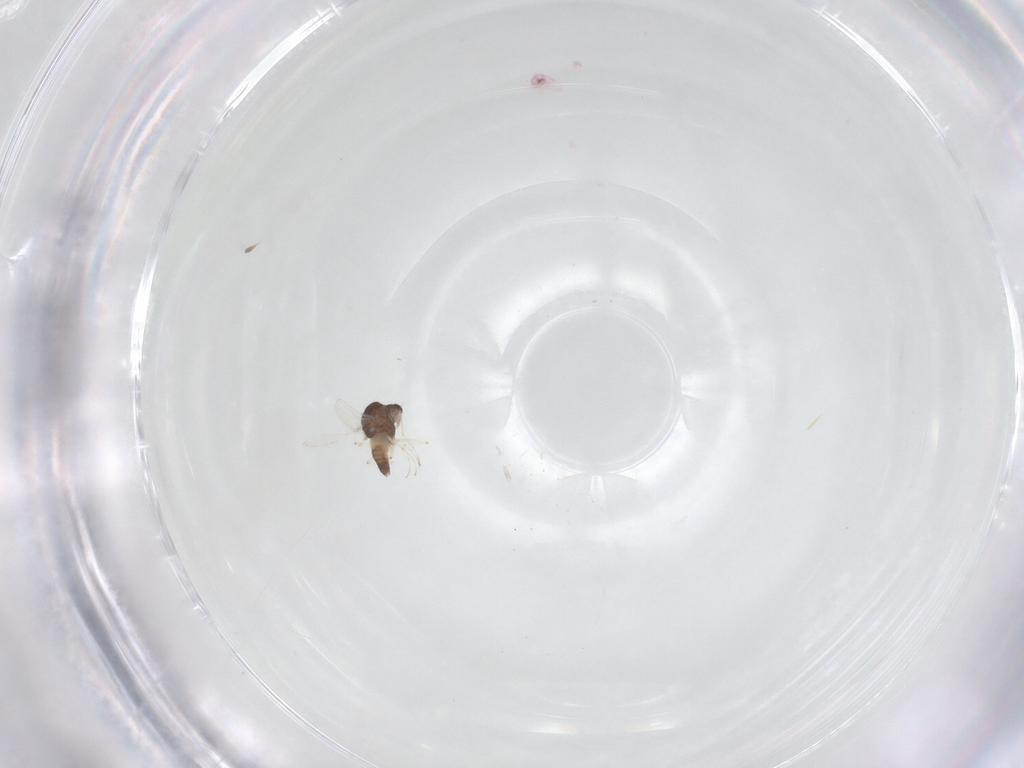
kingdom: Animalia
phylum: Arthropoda
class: Insecta
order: Diptera
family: Chironomidae
